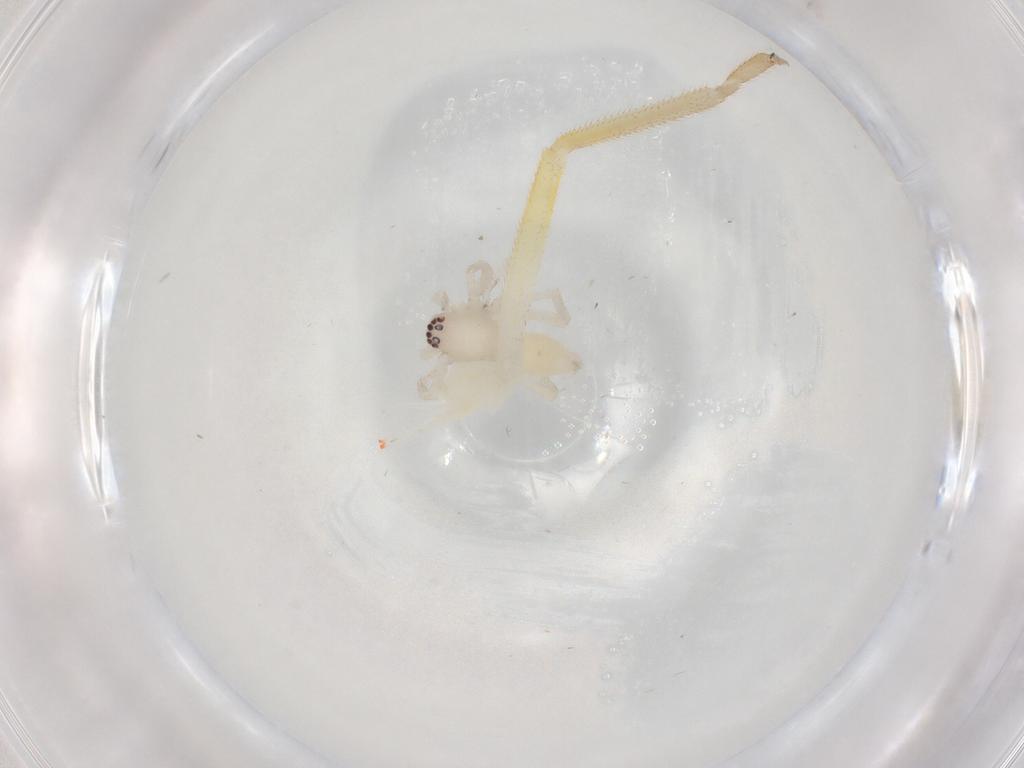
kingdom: Animalia
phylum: Arthropoda
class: Arachnida
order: Araneae
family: Clubionidae
